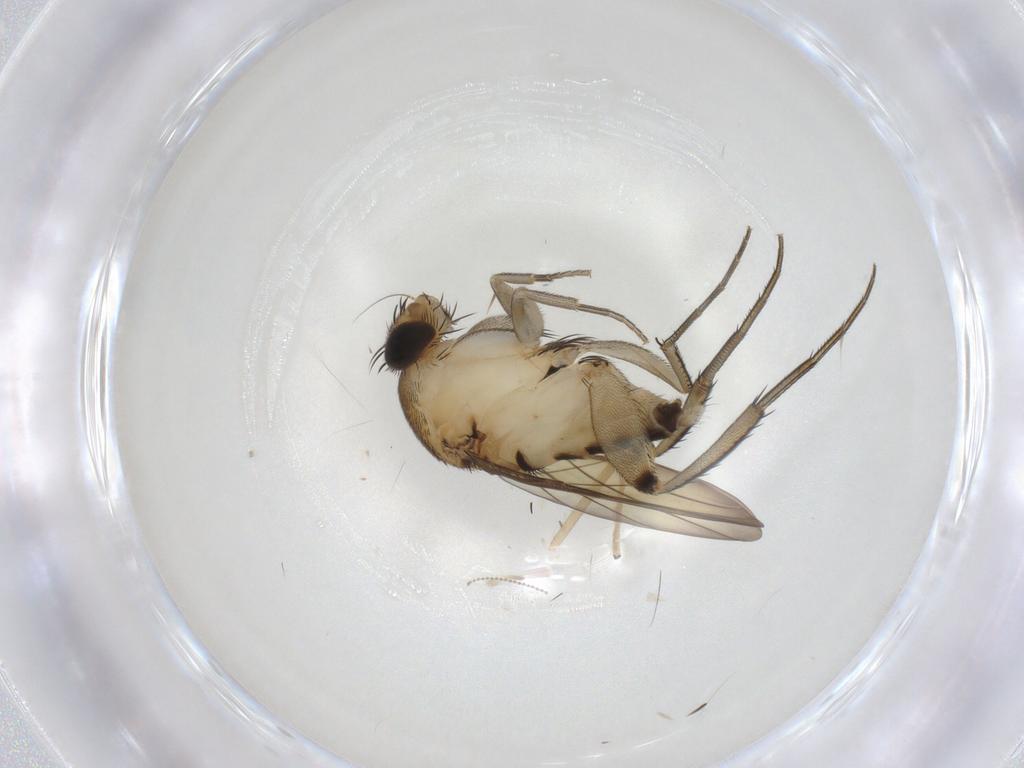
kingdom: Animalia
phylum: Arthropoda
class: Insecta
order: Diptera
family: Phoridae
